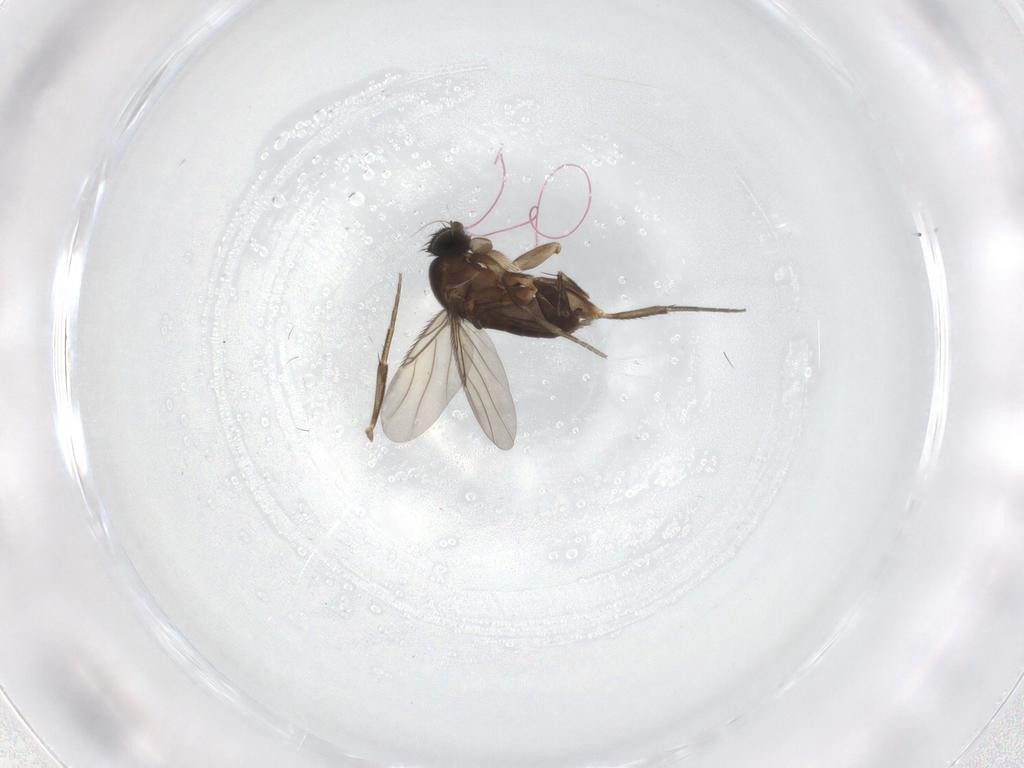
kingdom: Animalia
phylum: Arthropoda
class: Insecta
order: Diptera
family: Phoridae
